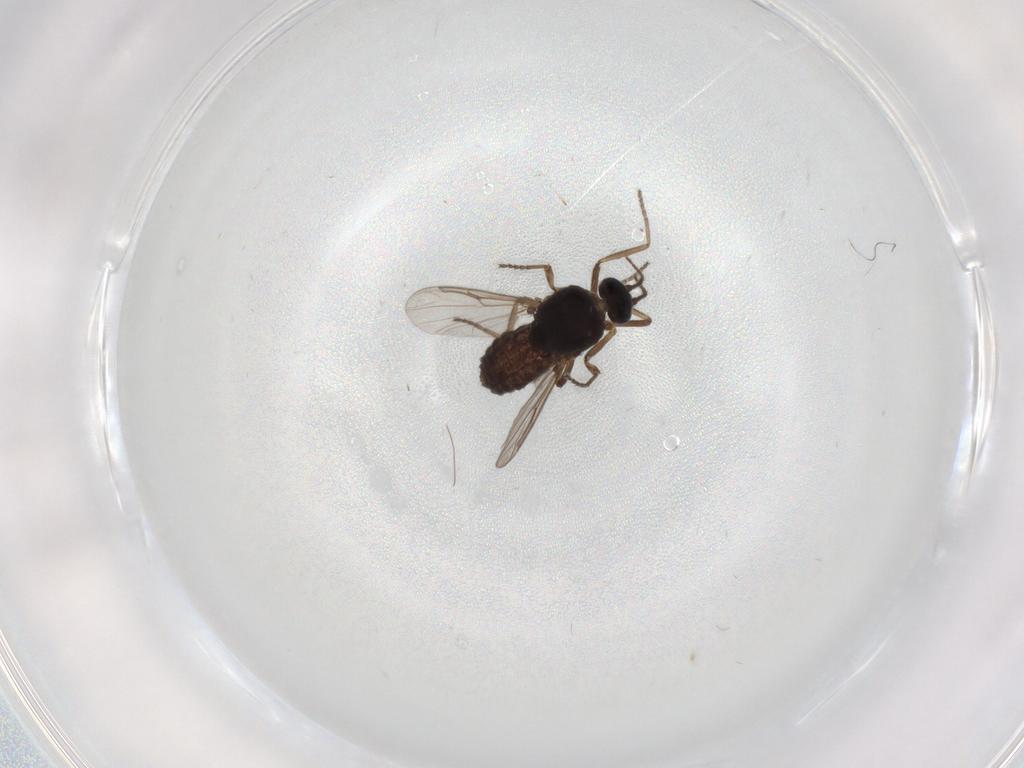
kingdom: Animalia
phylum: Arthropoda
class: Insecta
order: Diptera
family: Ceratopogonidae
